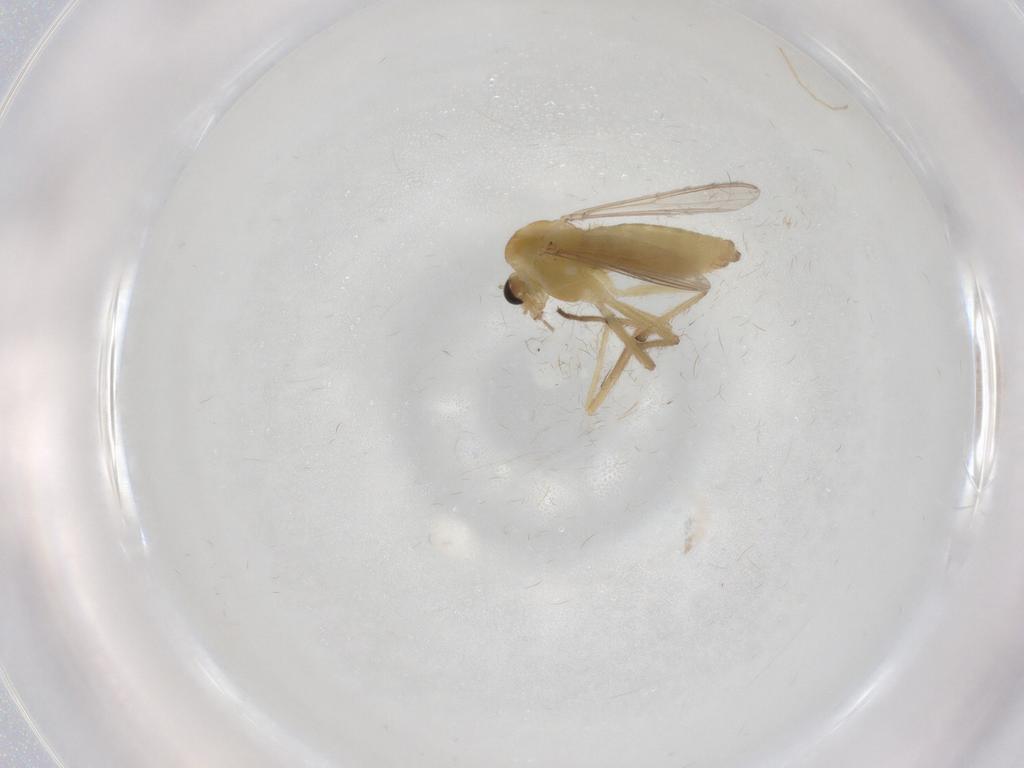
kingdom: Animalia
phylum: Arthropoda
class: Insecta
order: Diptera
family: Chironomidae
